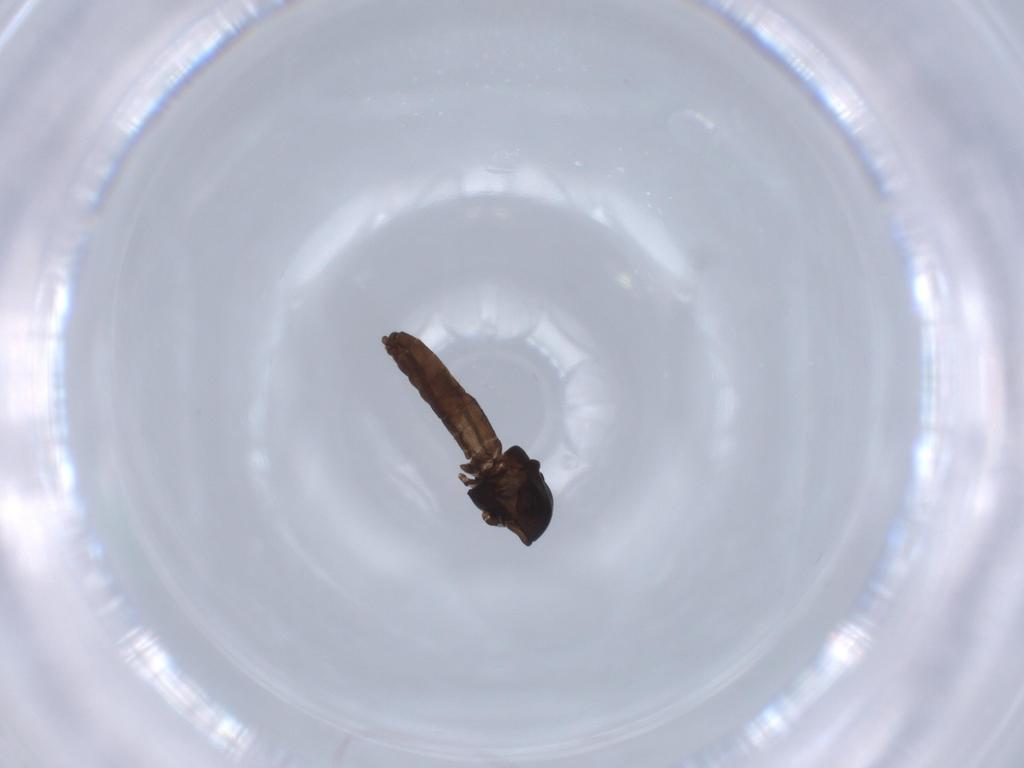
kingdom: Animalia
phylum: Arthropoda
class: Insecta
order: Diptera
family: Chironomidae
